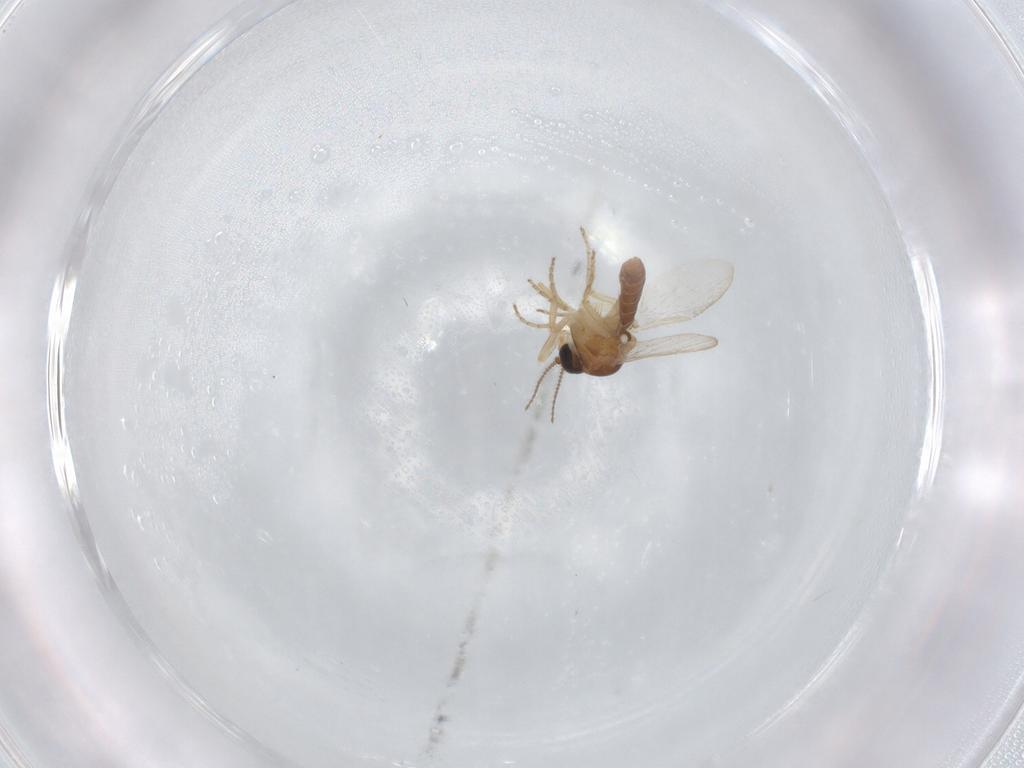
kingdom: Animalia
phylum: Arthropoda
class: Insecta
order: Diptera
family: Ceratopogonidae
